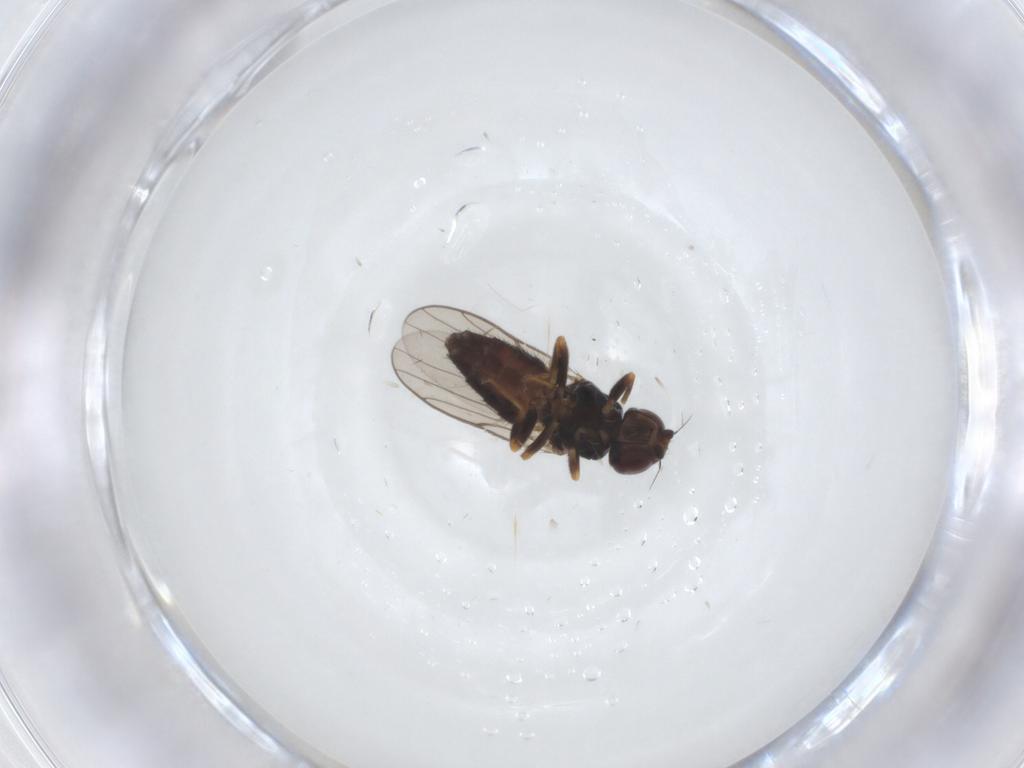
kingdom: Animalia
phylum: Arthropoda
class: Insecta
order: Diptera
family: Chloropidae
